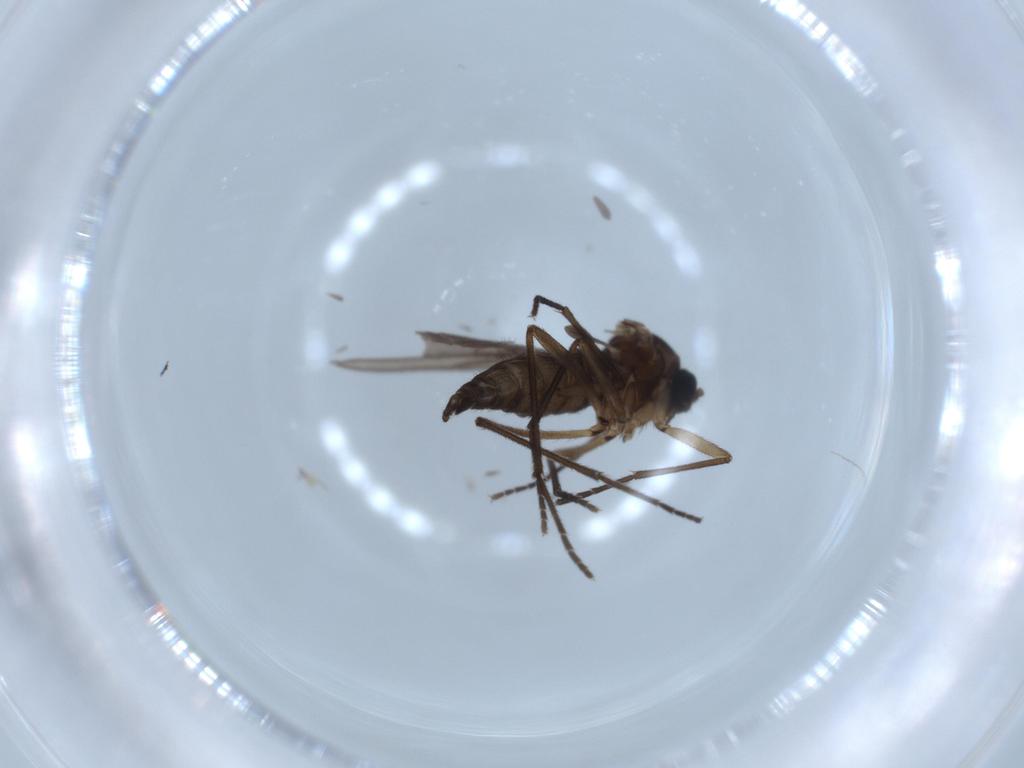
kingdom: Animalia
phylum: Arthropoda
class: Insecta
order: Diptera
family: Sciaridae
